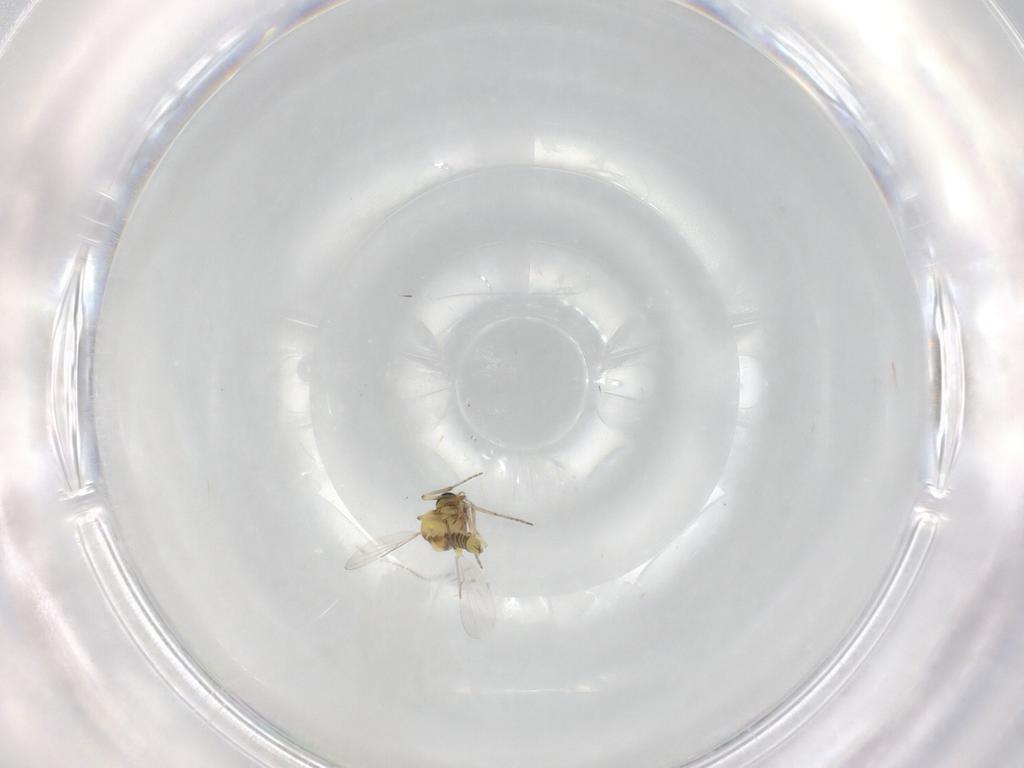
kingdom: Animalia
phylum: Arthropoda
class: Insecta
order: Diptera
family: Ceratopogonidae
